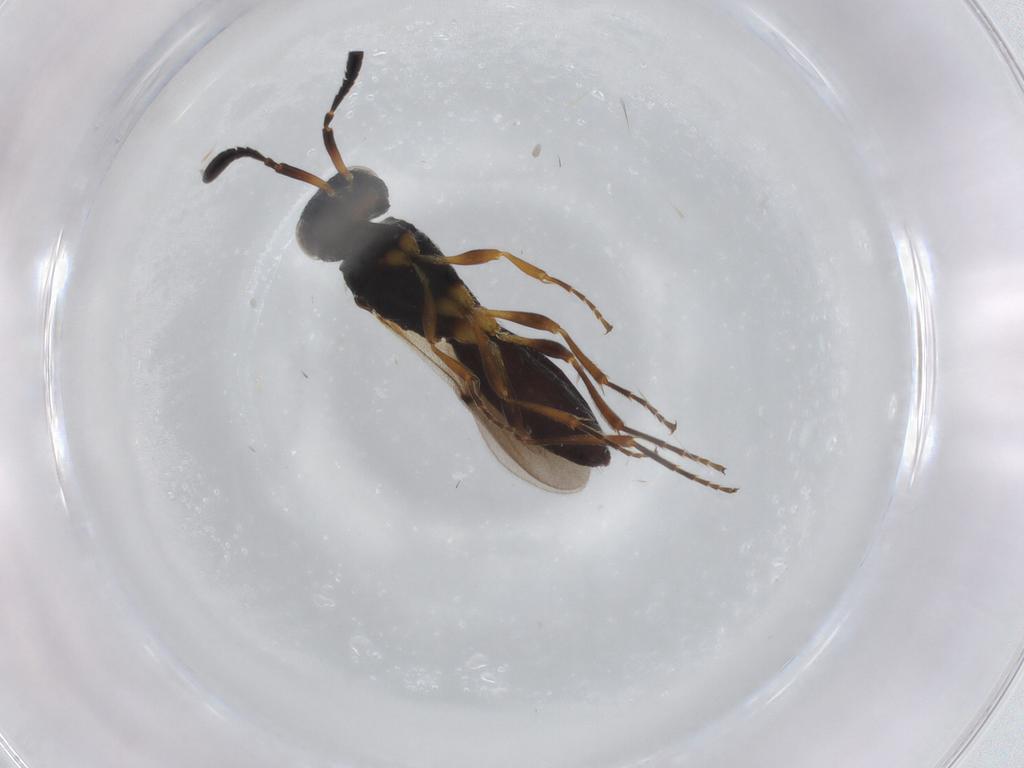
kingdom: Animalia
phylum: Arthropoda
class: Insecta
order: Hymenoptera
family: Scelionidae
